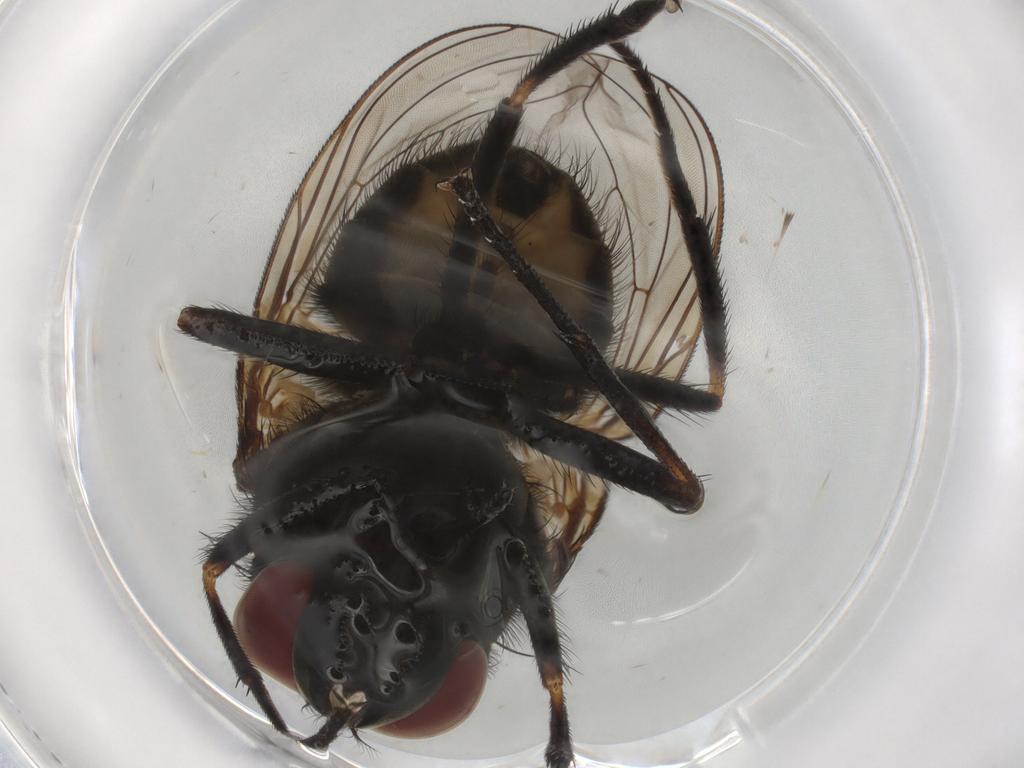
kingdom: Animalia
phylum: Arthropoda
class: Insecta
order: Diptera
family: Muscidae
